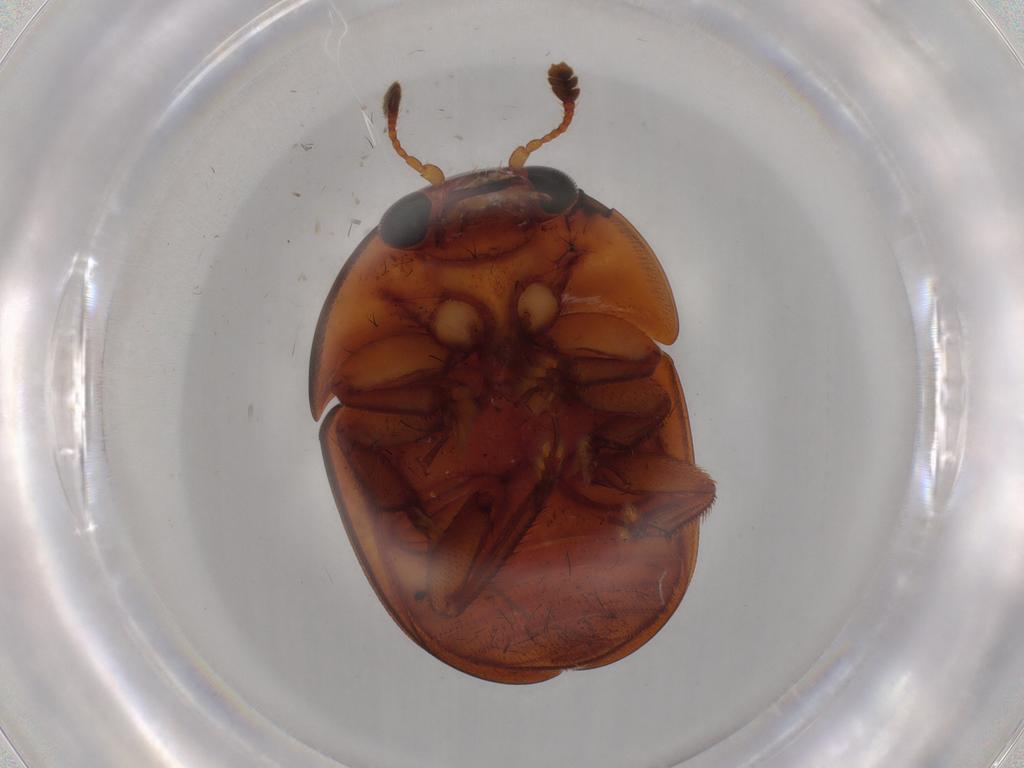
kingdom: Animalia
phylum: Arthropoda
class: Insecta
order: Coleoptera
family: Nitidulidae
